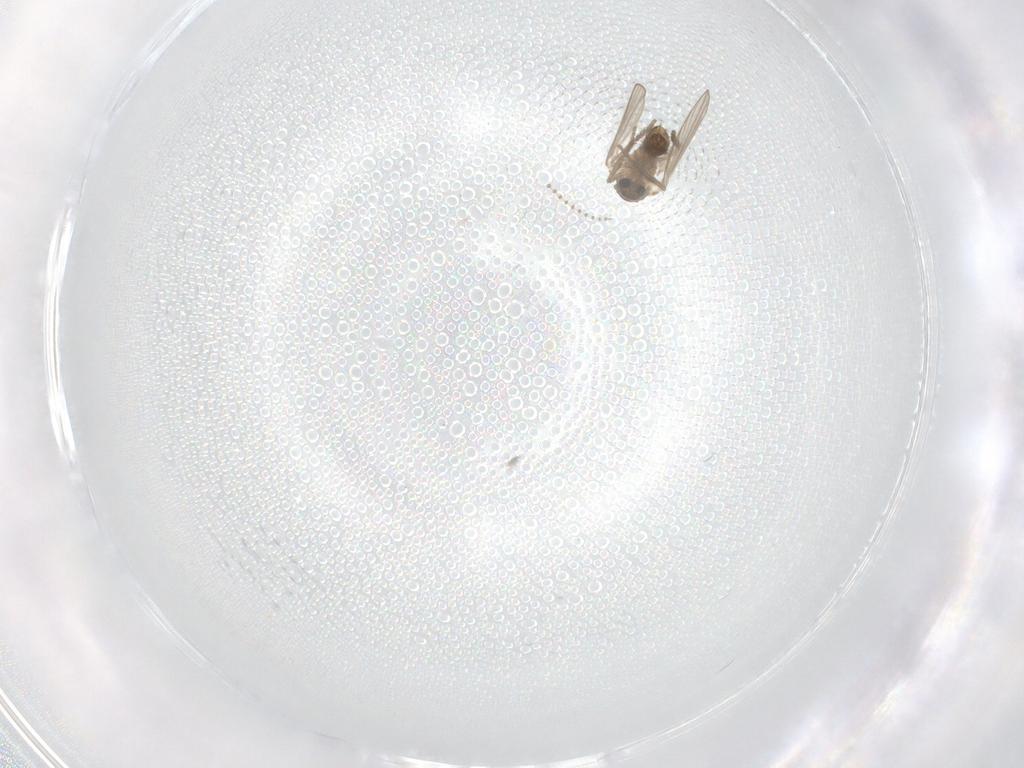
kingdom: Animalia
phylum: Arthropoda
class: Insecta
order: Diptera
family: Psychodidae
